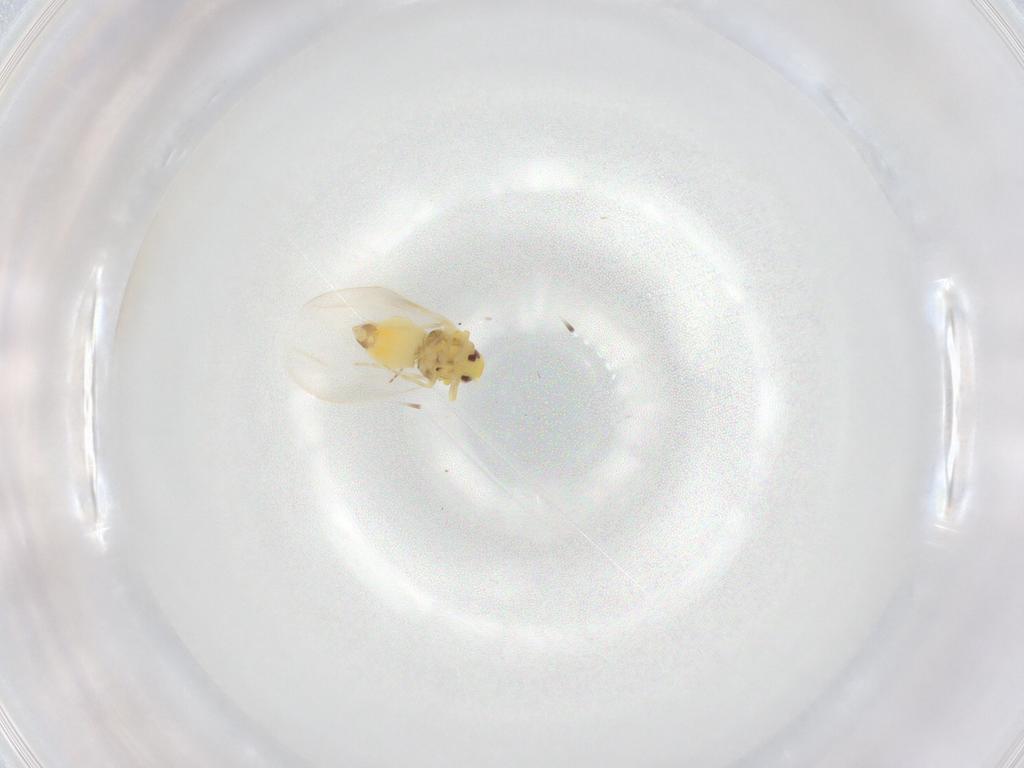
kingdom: Animalia
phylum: Arthropoda
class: Insecta
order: Hemiptera
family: Aleyrodidae
